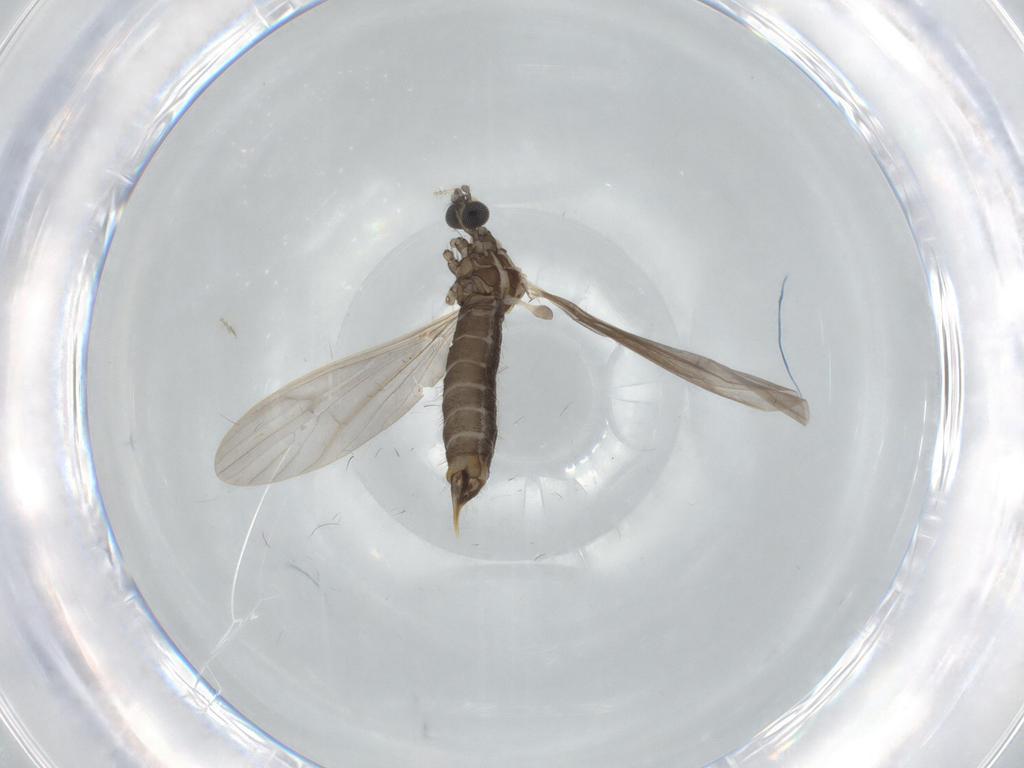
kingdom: Animalia
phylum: Arthropoda
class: Insecta
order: Diptera
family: Limoniidae
